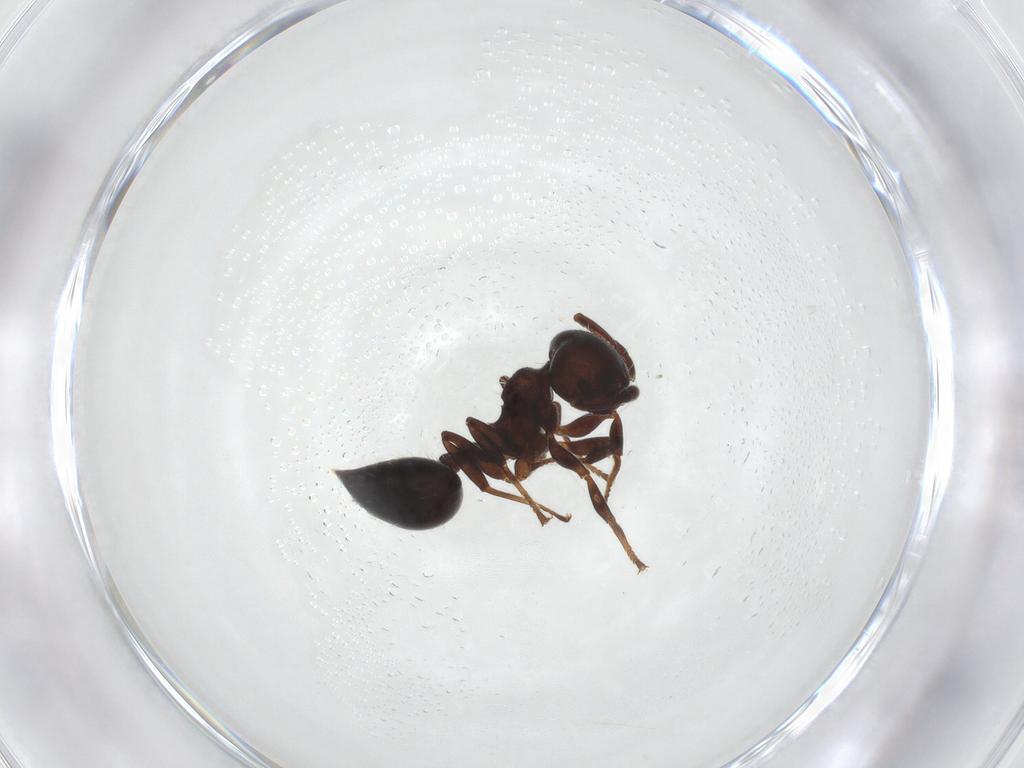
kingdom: Animalia
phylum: Arthropoda
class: Insecta
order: Hymenoptera
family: Formicidae
